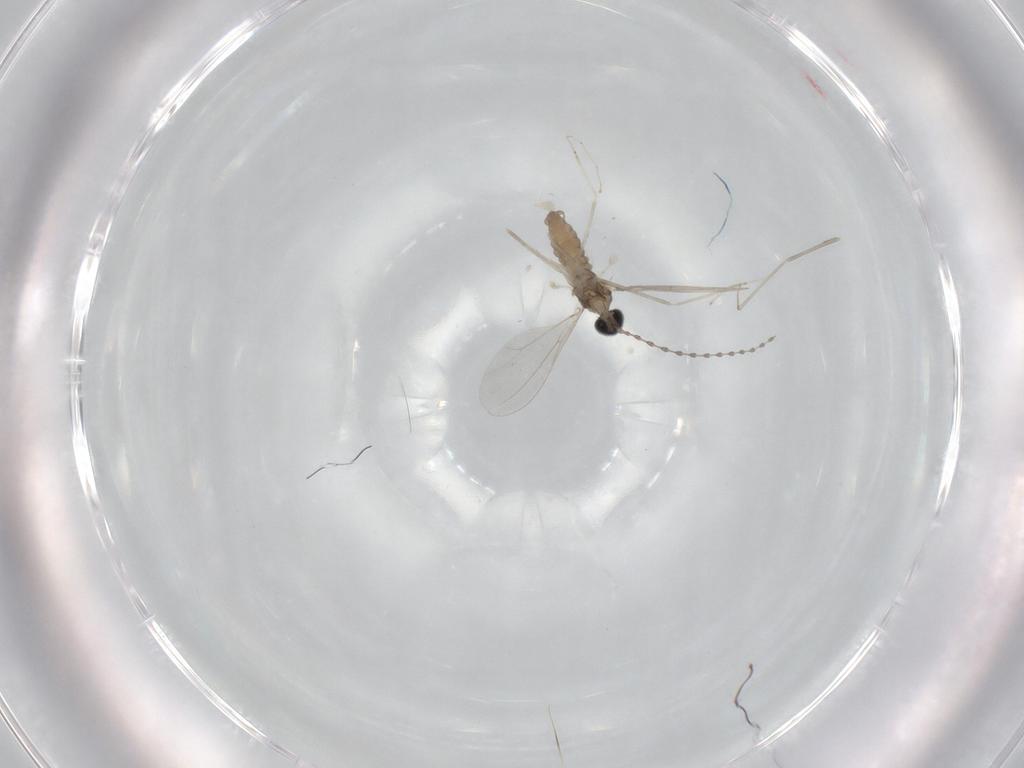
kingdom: Animalia
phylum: Arthropoda
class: Insecta
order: Diptera
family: Cecidomyiidae
